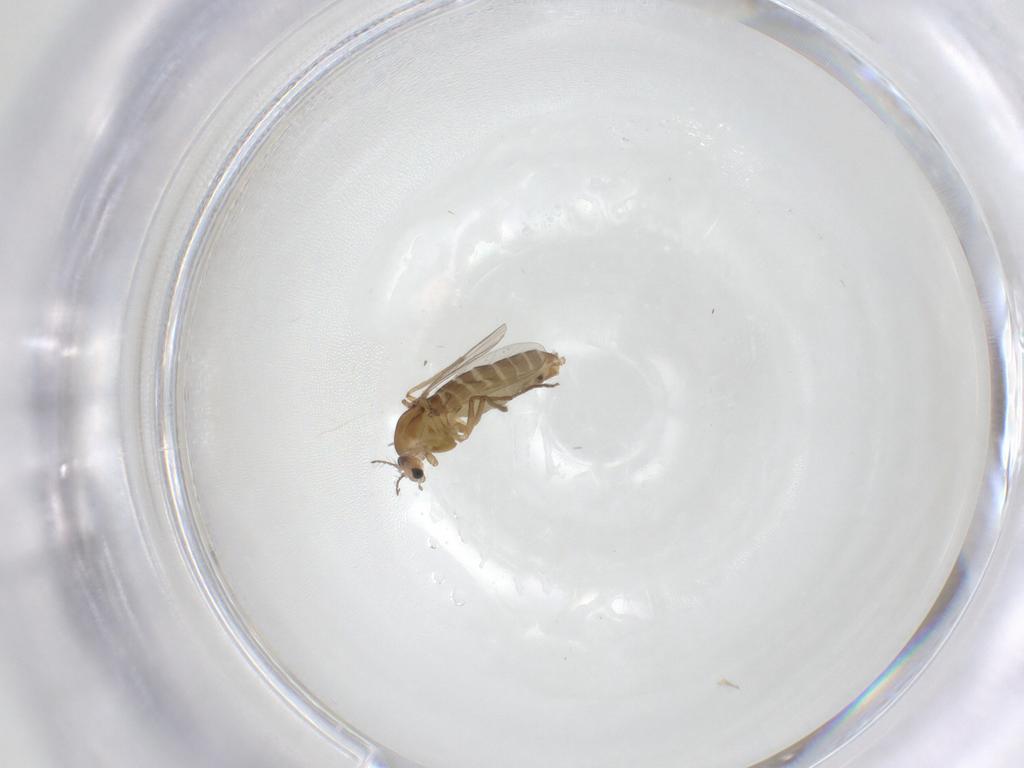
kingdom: Animalia
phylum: Arthropoda
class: Insecta
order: Diptera
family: Chironomidae
